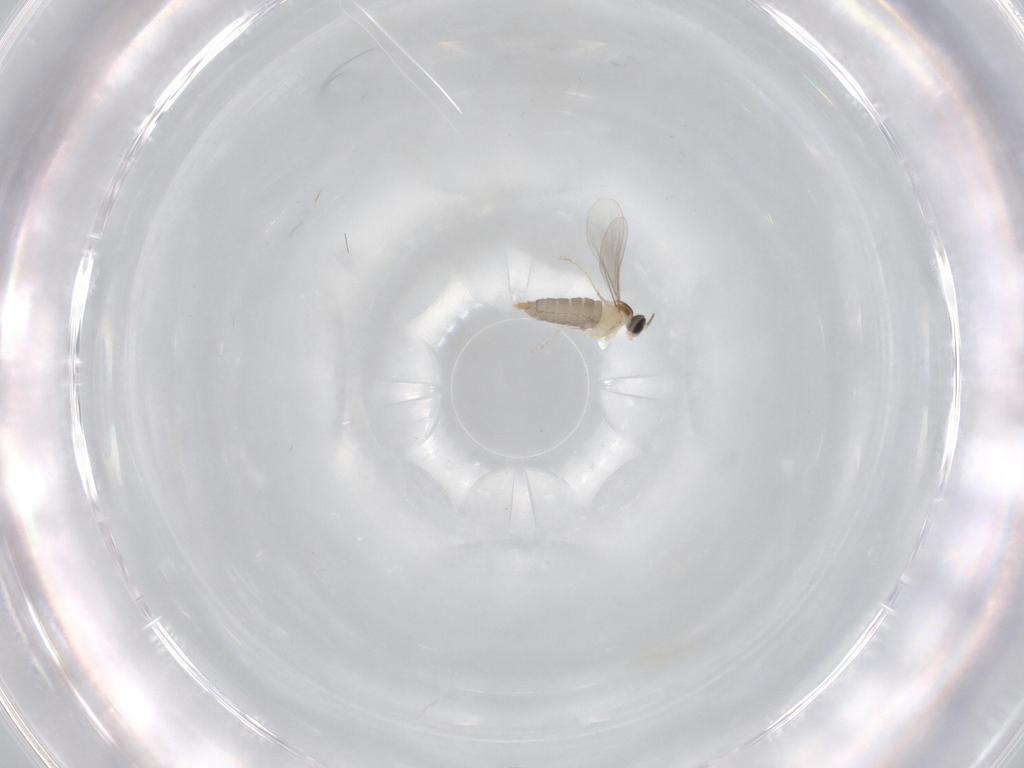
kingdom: Animalia
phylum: Arthropoda
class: Insecta
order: Diptera
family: Cecidomyiidae
